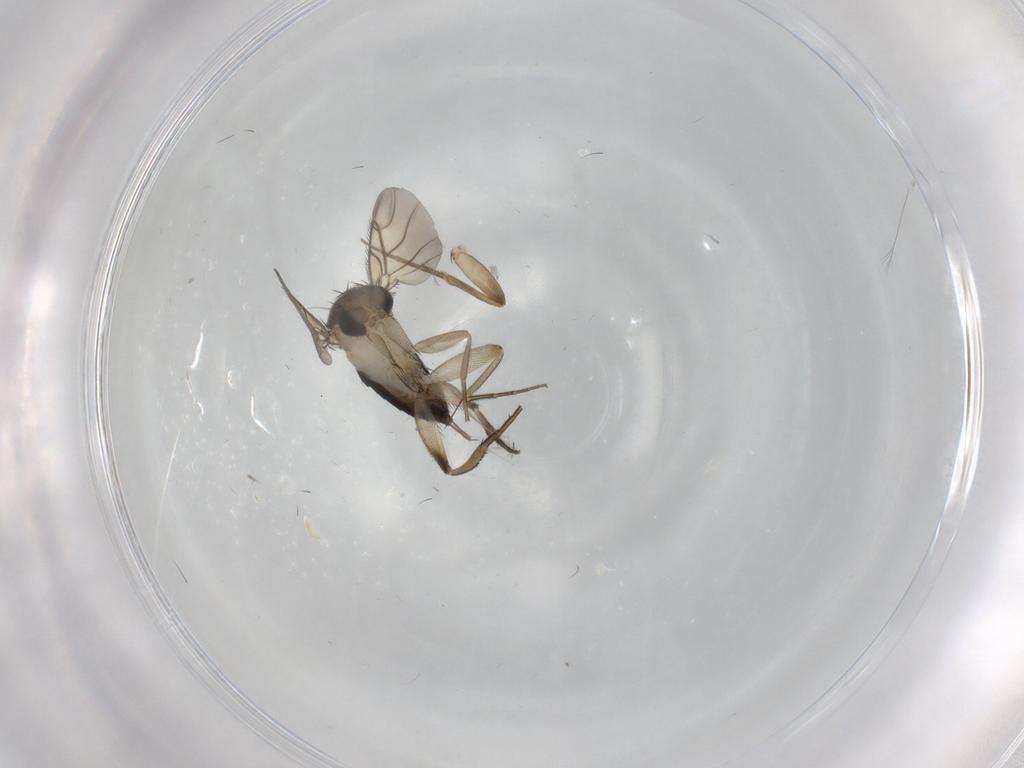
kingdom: Animalia
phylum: Arthropoda
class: Insecta
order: Diptera
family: Phoridae
